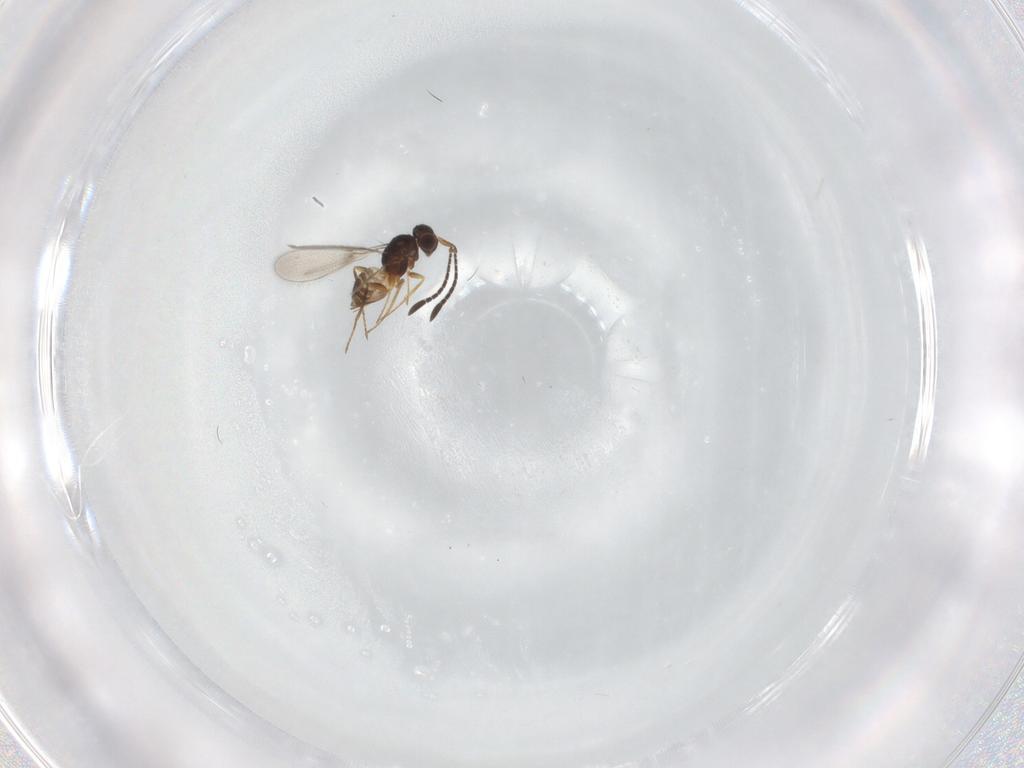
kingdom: Animalia
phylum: Arthropoda
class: Insecta
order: Hymenoptera
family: Mymaridae
